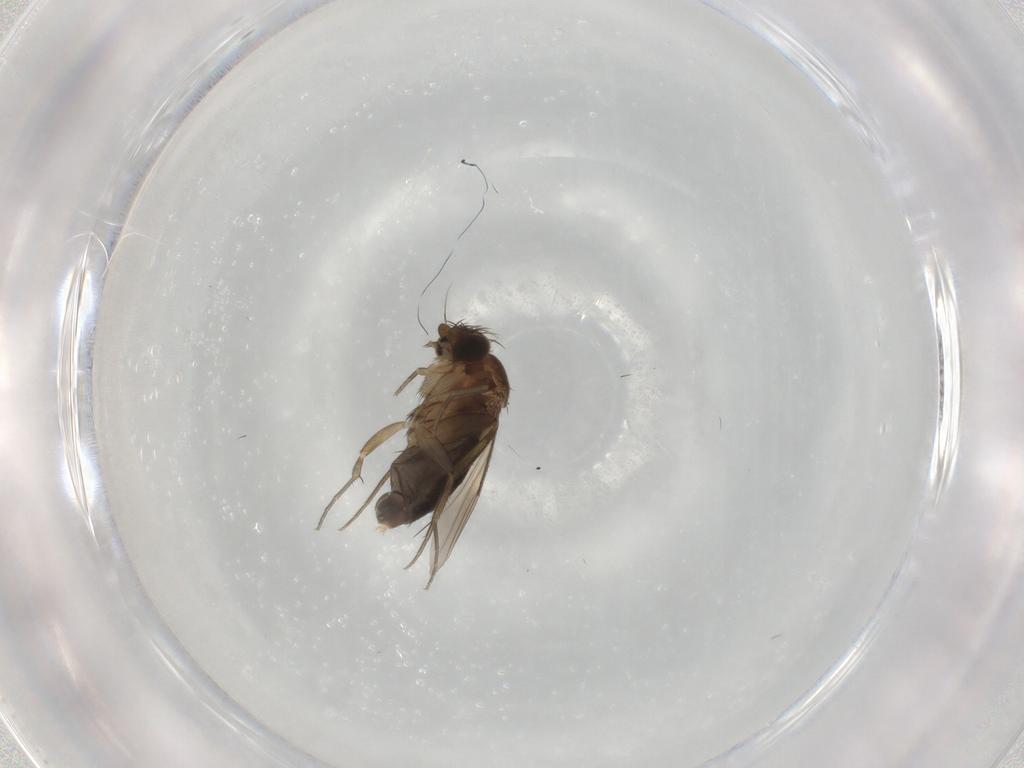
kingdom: Animalia
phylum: Arthropoda
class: Insecta
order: Diptera
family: Phoridae
